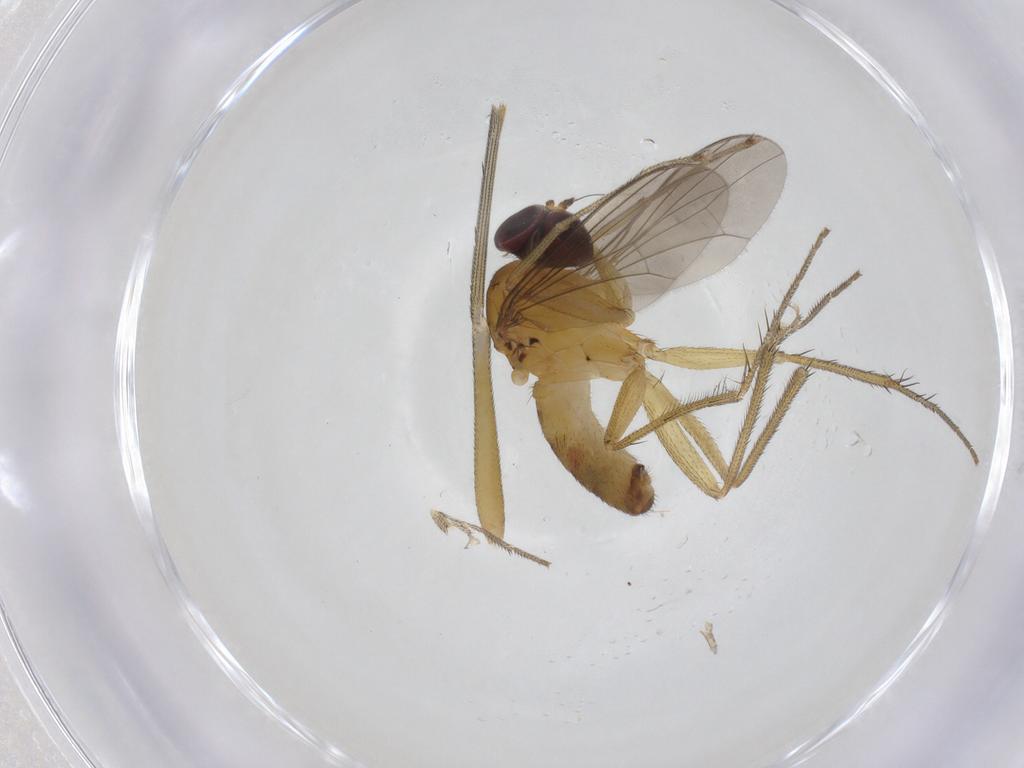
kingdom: Animalia
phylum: Arthropoda
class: Insecta
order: Diptera
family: Dolichopodidae
